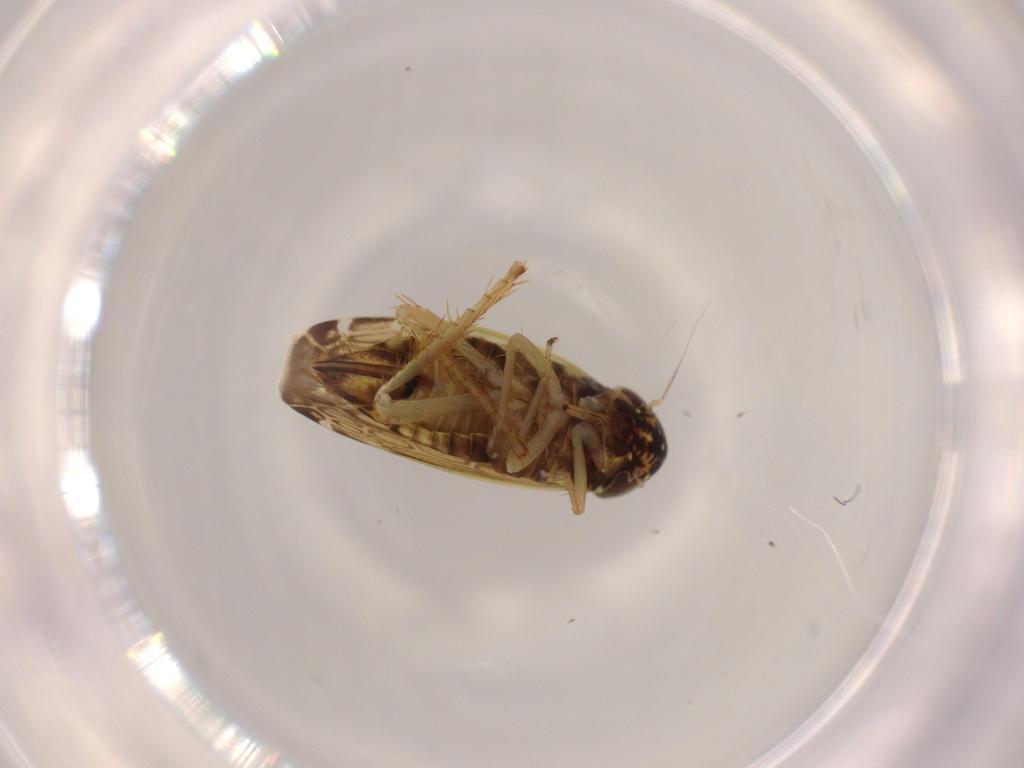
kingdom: Animalia
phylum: Arthropoda
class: Insecta
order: Hemiptera
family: Cicadellidae
